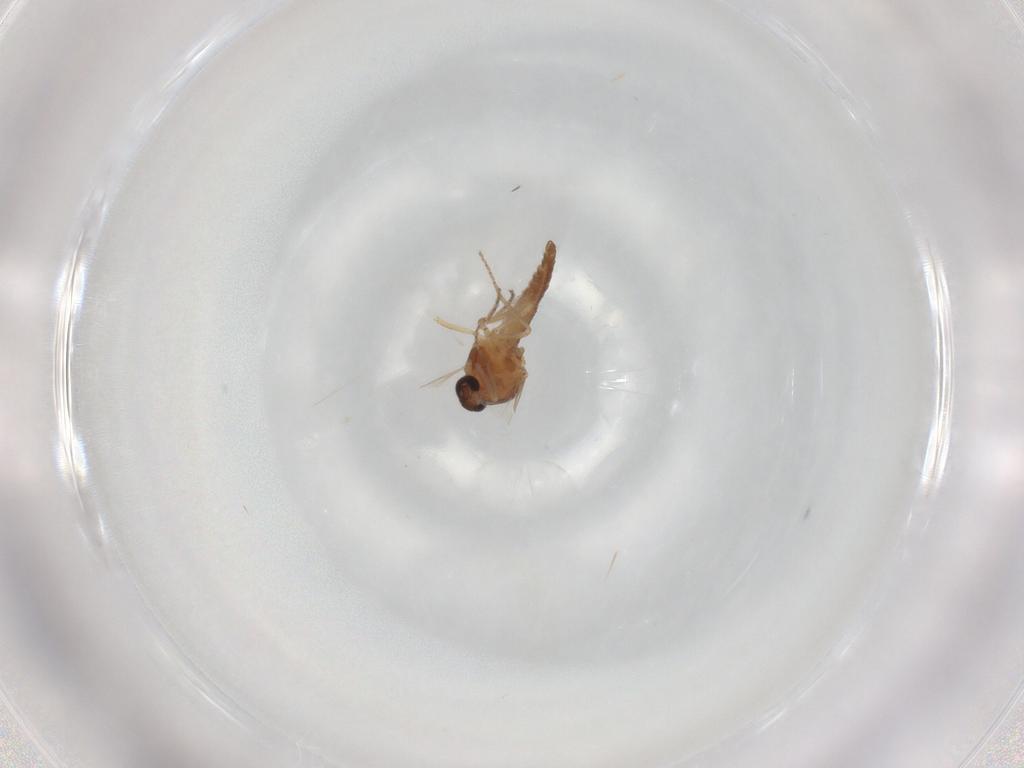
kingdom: Animalia
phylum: Arthropoda
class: Insecta
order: Diptera
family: Ceratopogonidae
